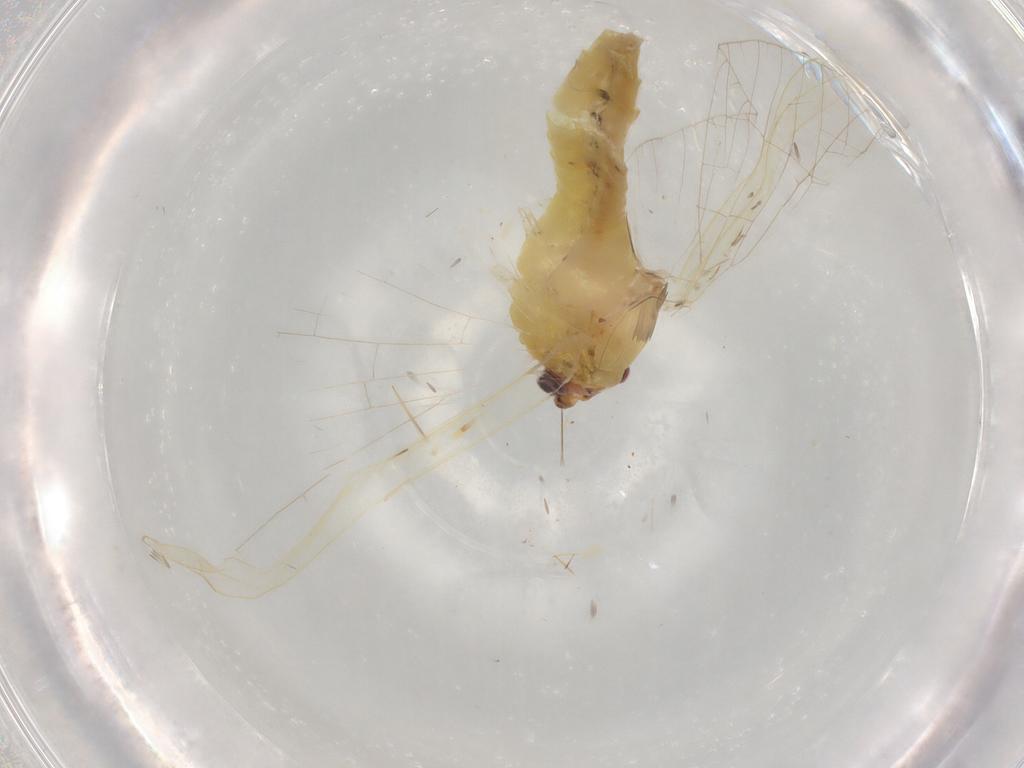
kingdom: Animalia
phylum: Arthropoda
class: Insecta
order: Ephemeroptera
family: Baetidae
